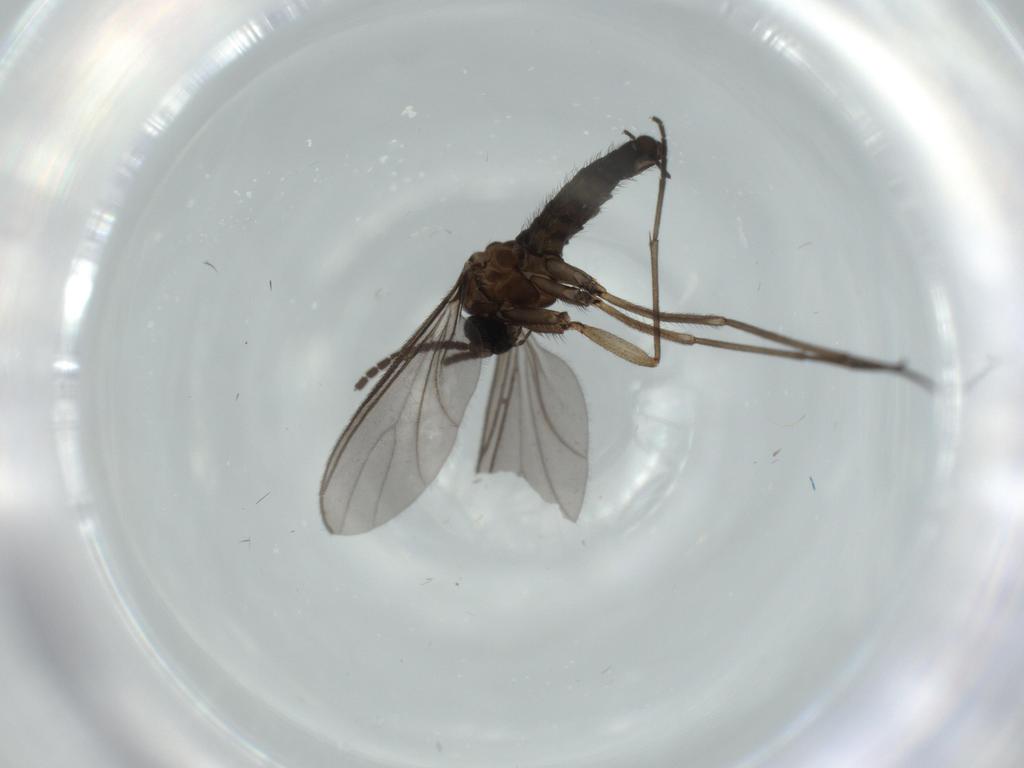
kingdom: Animalia
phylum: Arthropoda
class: Insecta
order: Diptera
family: Sciaridae
